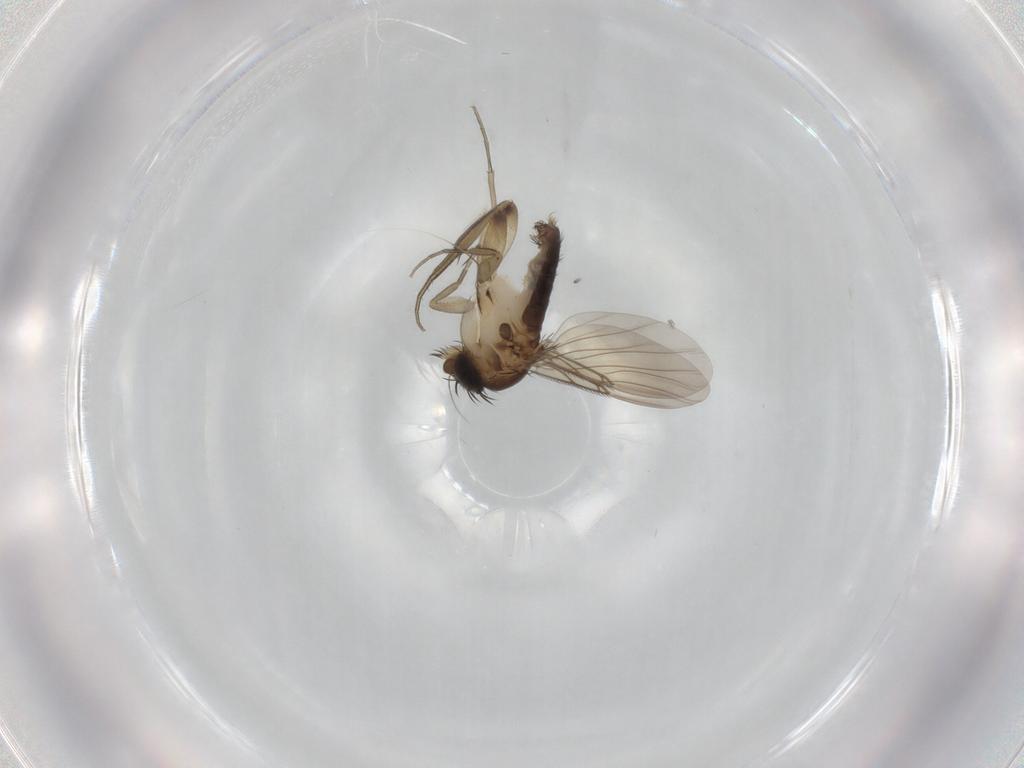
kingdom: Animalia
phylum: Arthropoda
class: Insecta
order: Diptera
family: Phoridae
